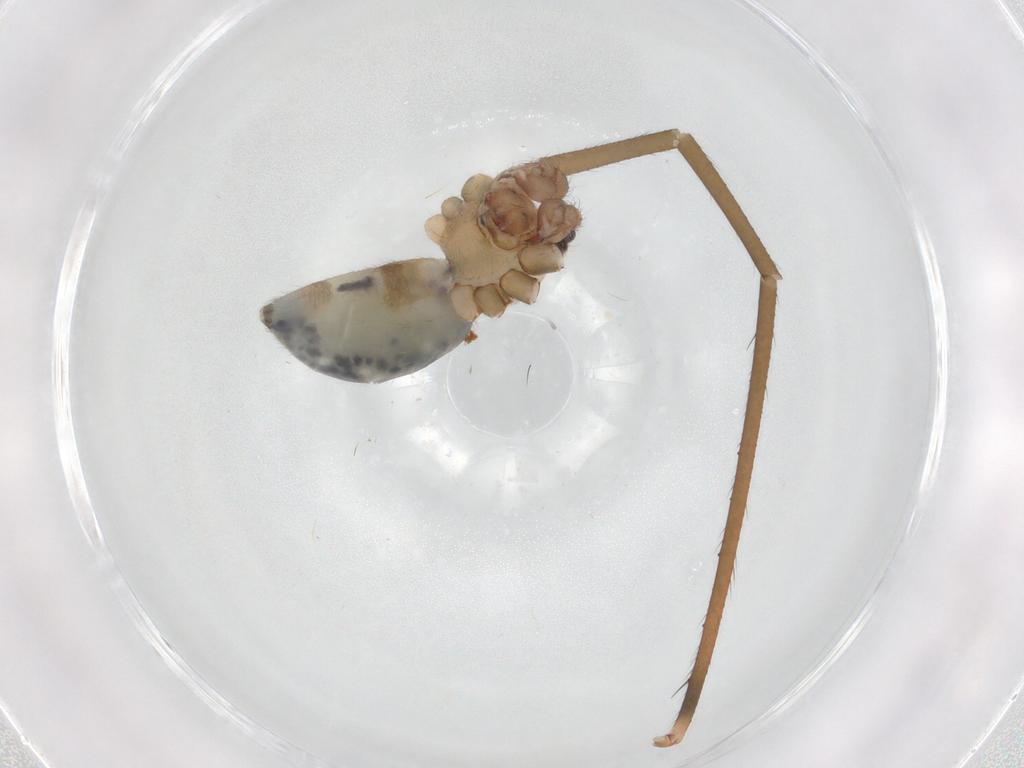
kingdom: Animalia
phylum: Arthropoda
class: Arachnida
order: Araneae
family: Pholcidae
